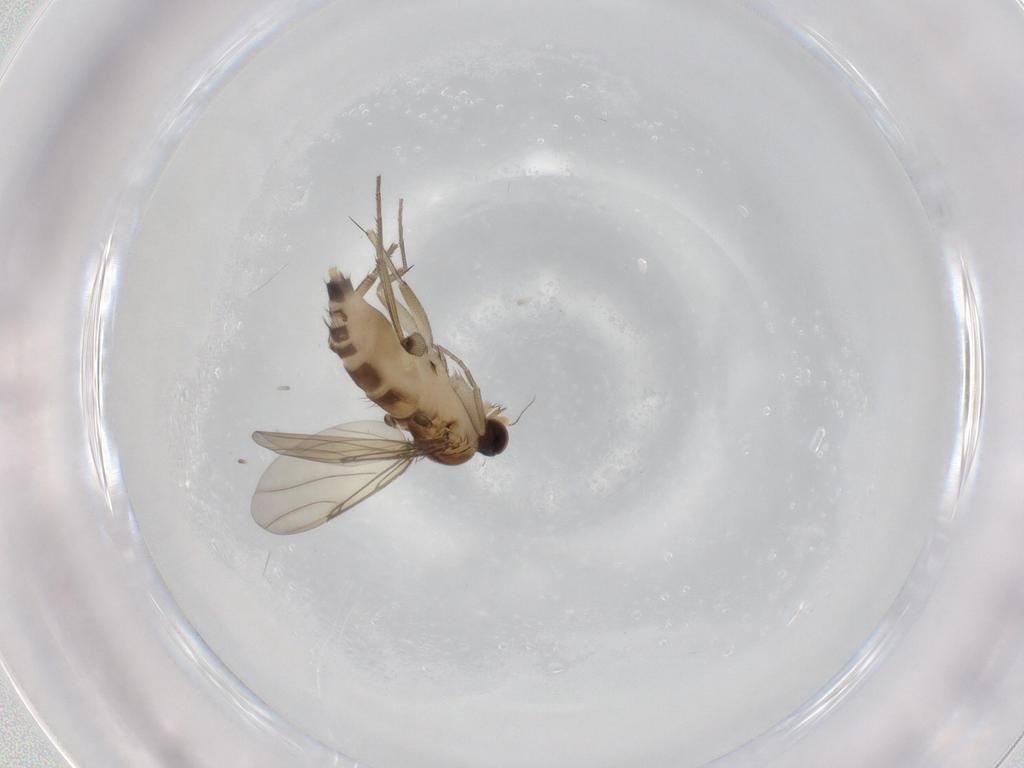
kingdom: Animalia
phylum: Arthropoda
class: Insecta
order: Diptera
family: Phoridae
